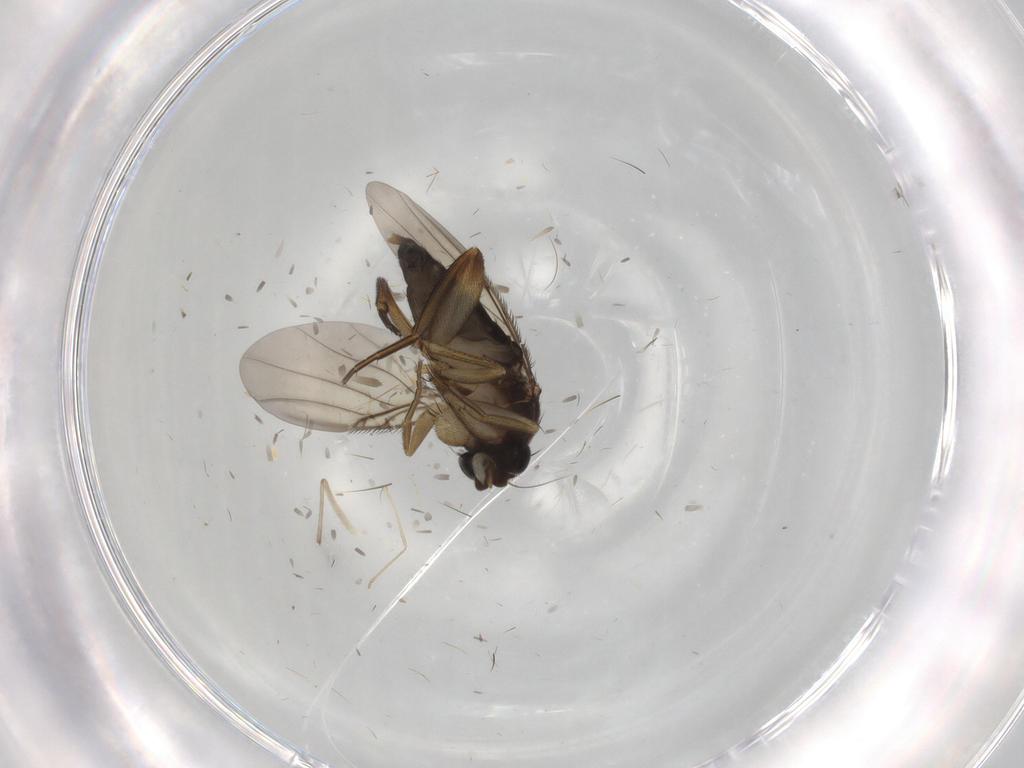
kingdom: Animalia
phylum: Arthropoda
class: Insecta
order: Diptera
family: Phoridae
